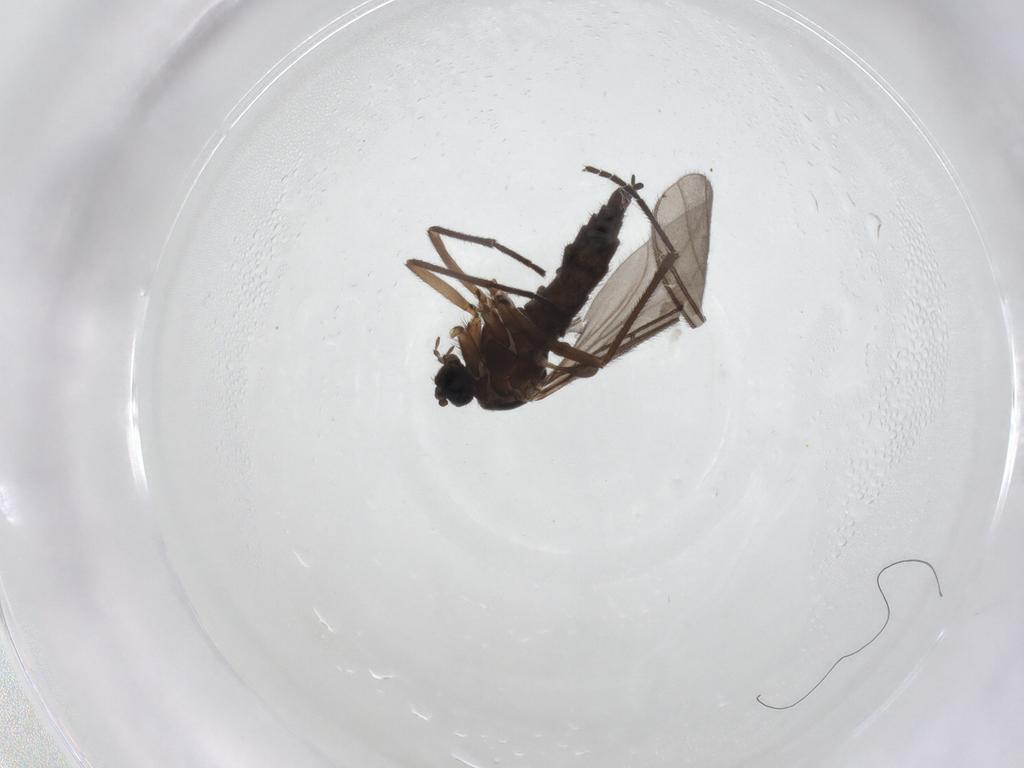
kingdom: Animalia
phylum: Arthropoda
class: Insecta
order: Diptera
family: Sciaridae
